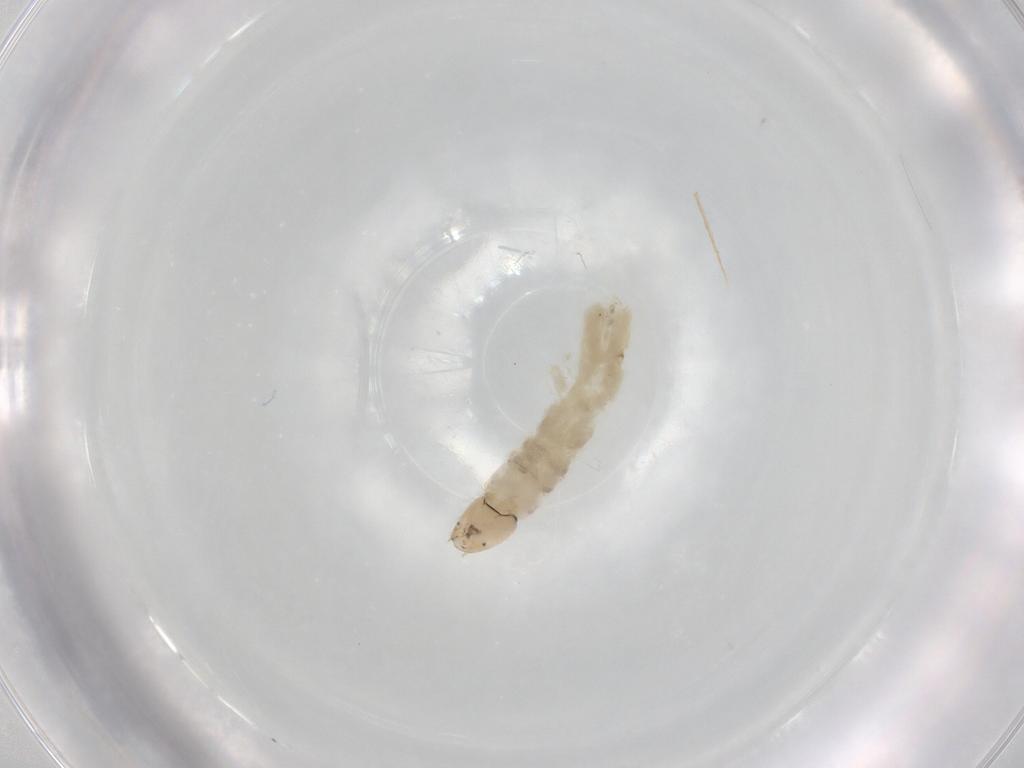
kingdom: Animalia
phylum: Arthropoda
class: Insecta
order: Diptera
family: Chironomidae
